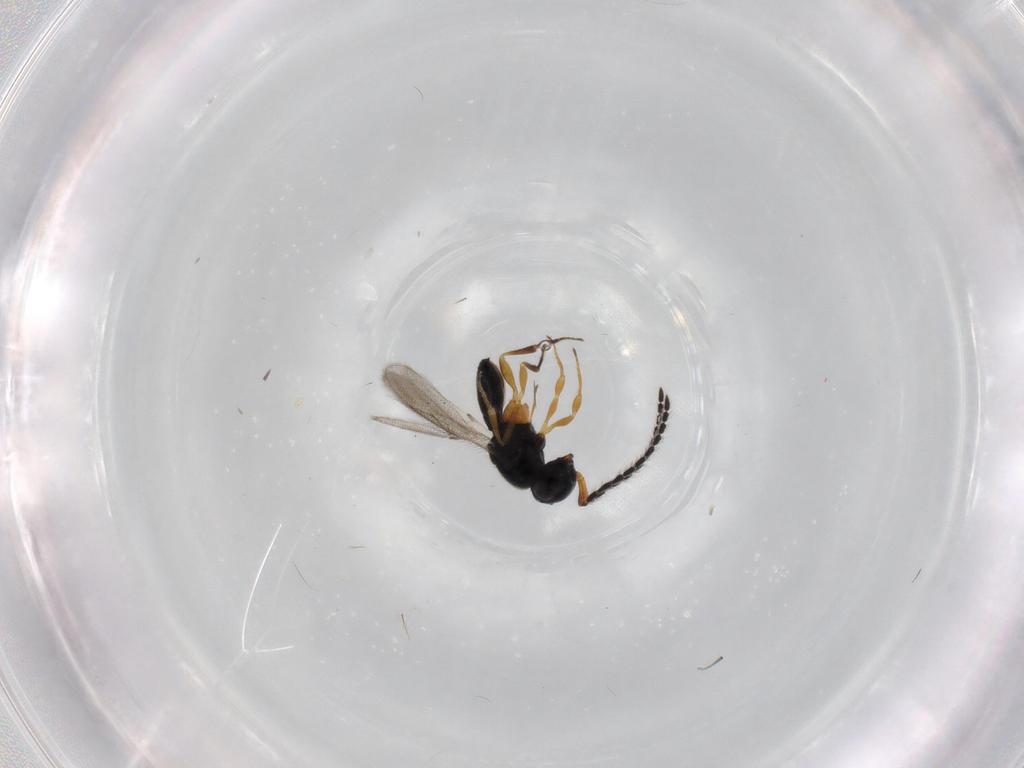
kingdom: Animalia
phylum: Arthropoda
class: Insecta
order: Hymenoptera
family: Scelionidae
